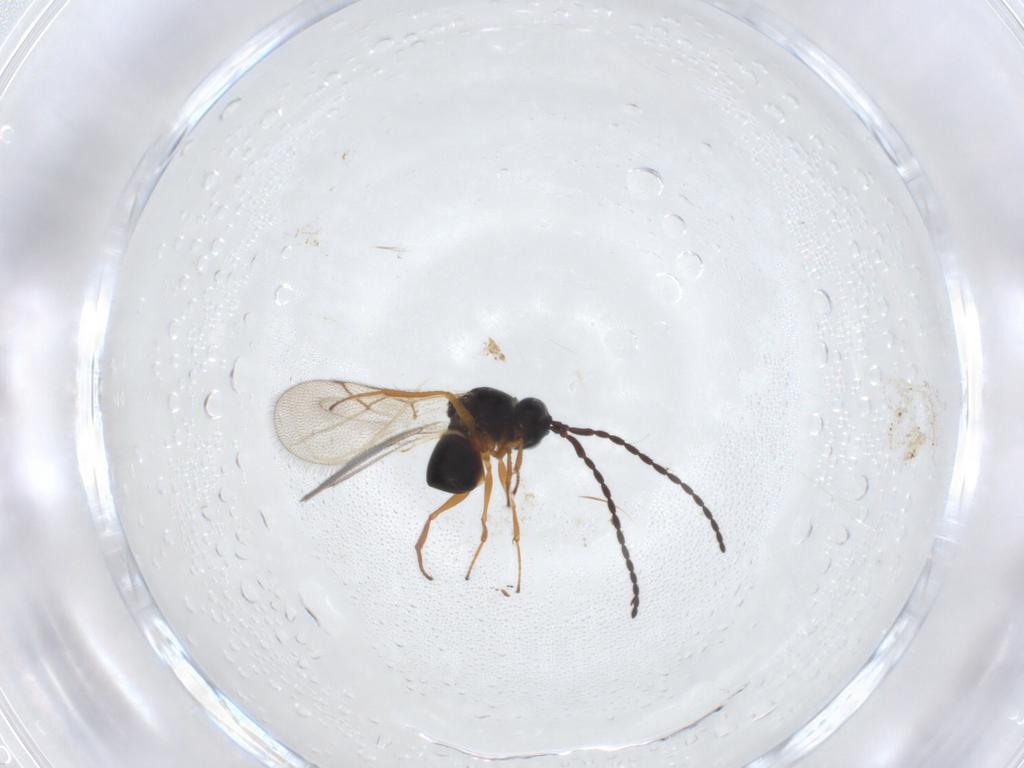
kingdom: Animalia
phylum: Arthropoda
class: Insecta
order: Hymenoptera
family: Figitidae
